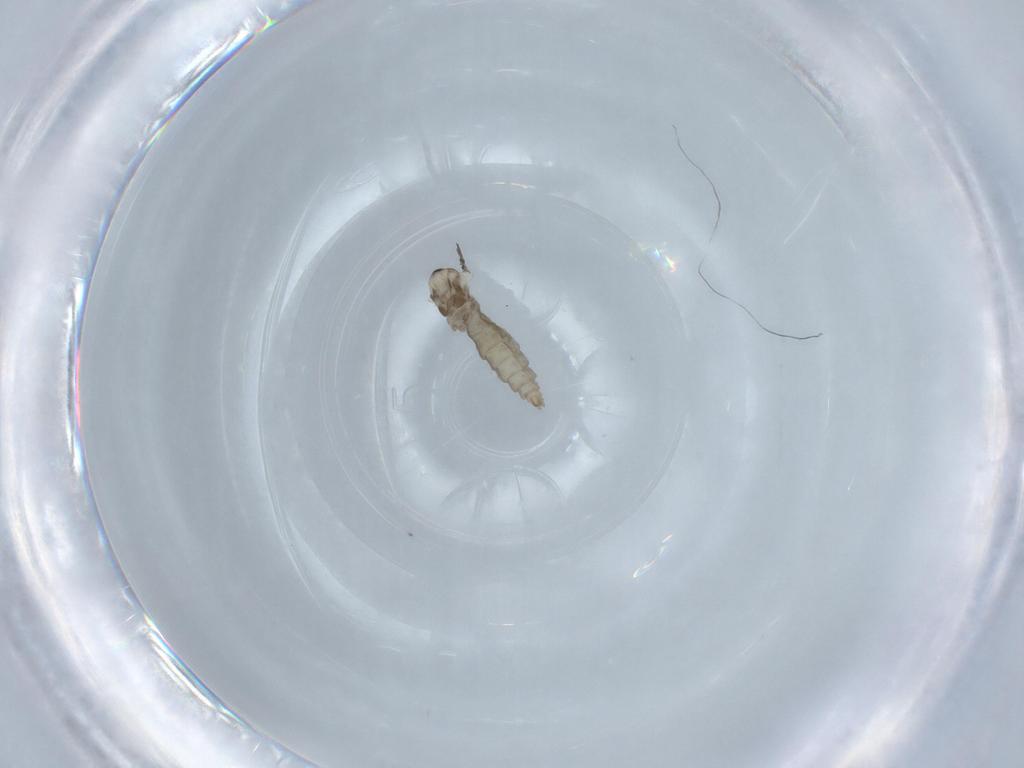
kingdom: Animalia
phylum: Arthropoda
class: Insecta
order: Diptera
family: Cecidomyiidae
